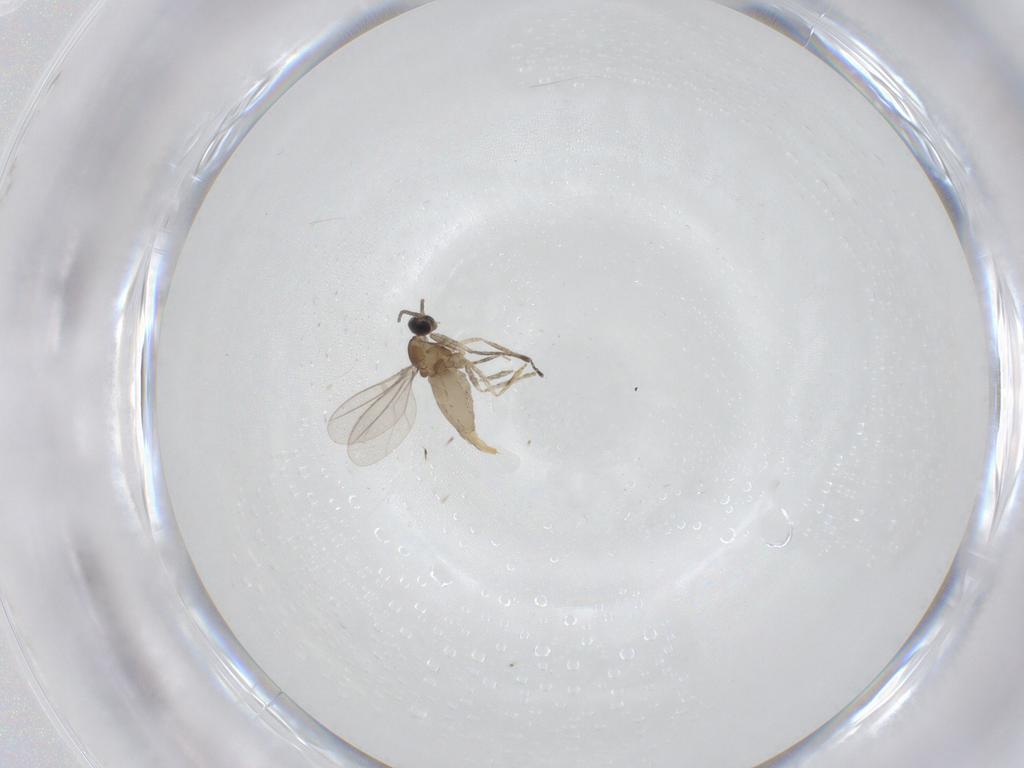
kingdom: Animalia
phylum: Arthropoda
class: Insecta
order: Diptera
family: Cecidomyiidae
